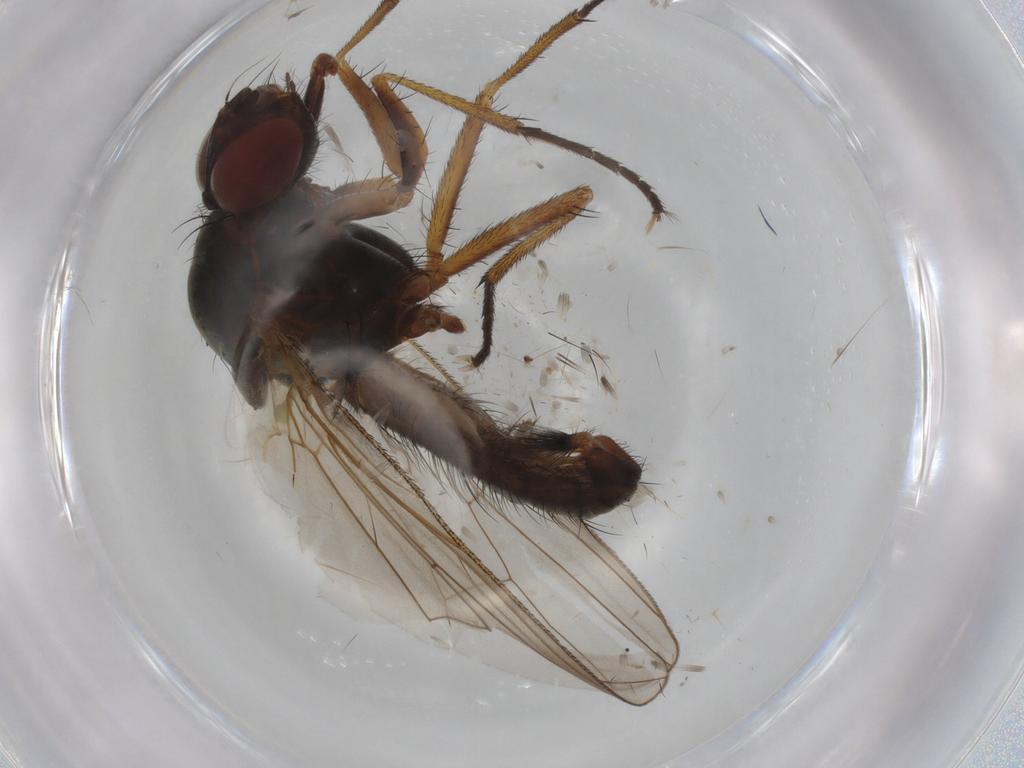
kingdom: Animalia
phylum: Arthropoda
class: Insecta
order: Diptera
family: Anthomyiidae
